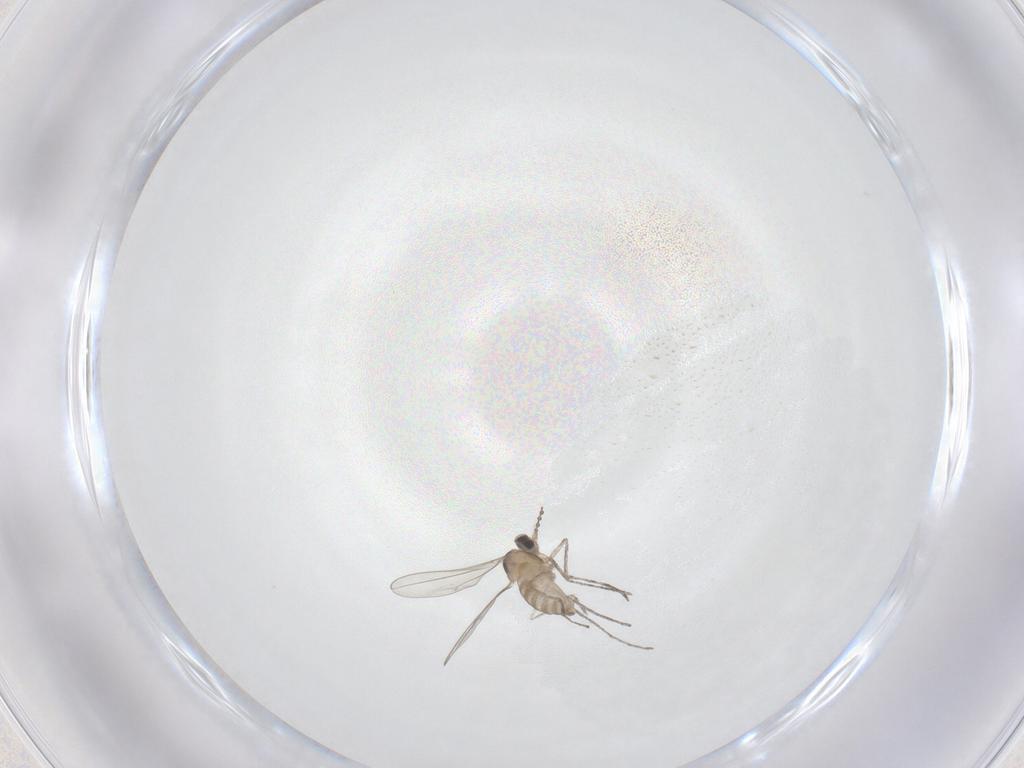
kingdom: Animalia
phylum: Arthropoda
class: Insecta
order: Diptera
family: Cecidomyiidae
